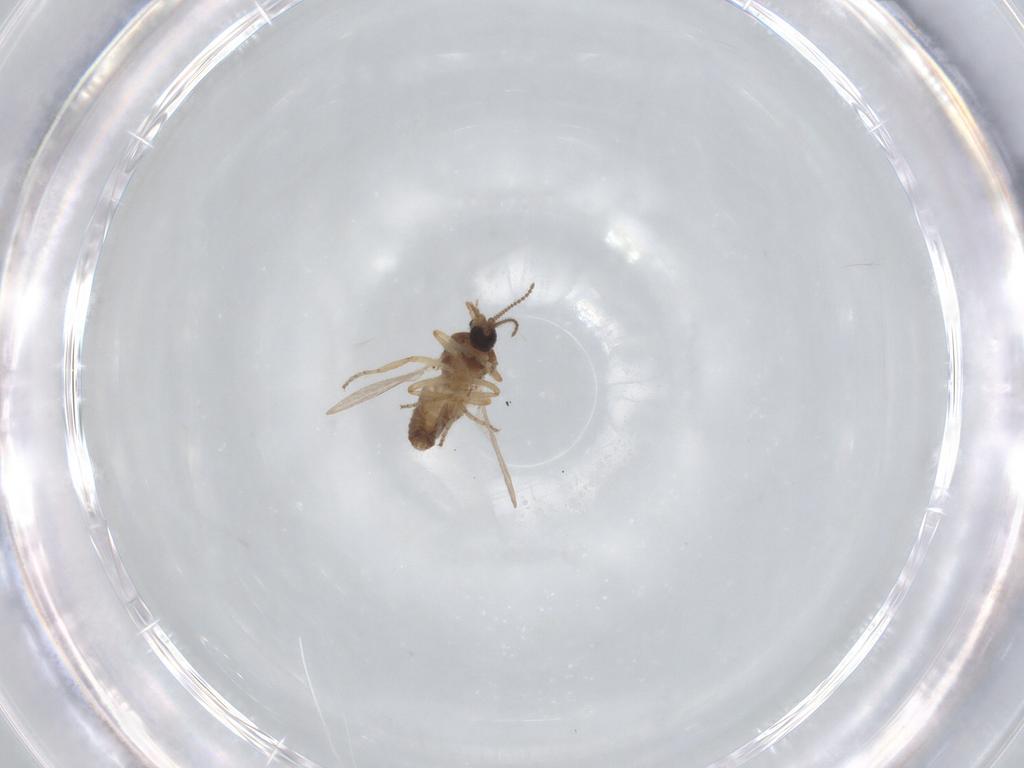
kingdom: Animalia
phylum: Arthropoda
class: Insecta
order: Diptera
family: Ceratopogonidae
